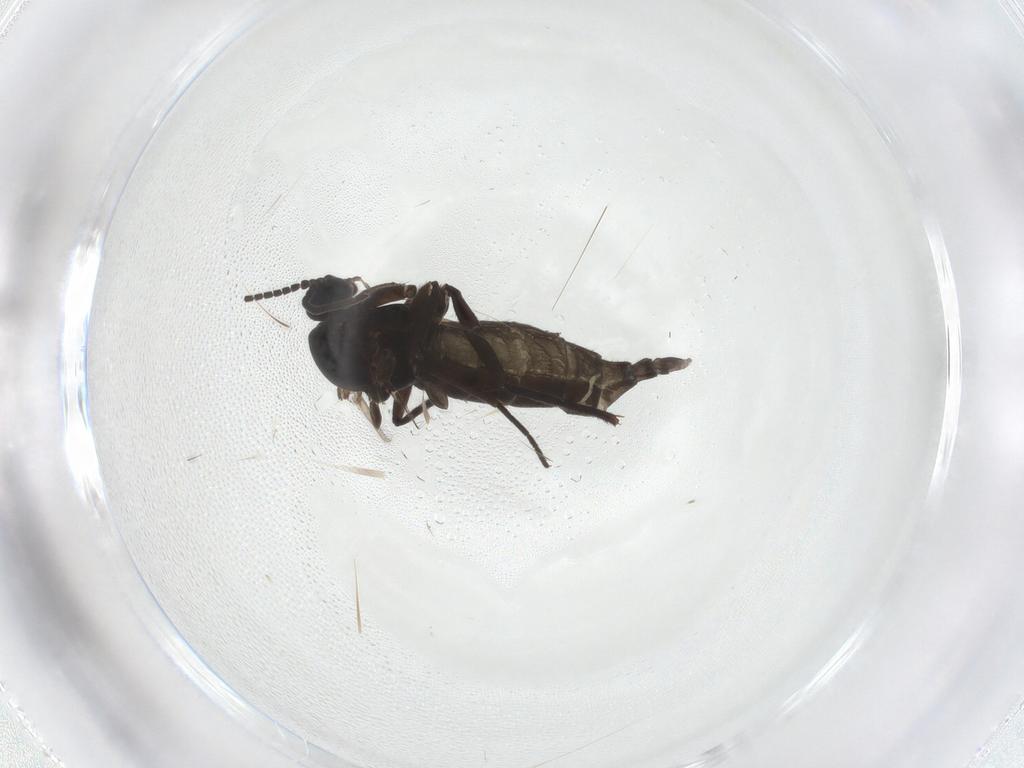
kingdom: Animalia
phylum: Arthropoda
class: Insecta
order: Diptera
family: Sciaridae
